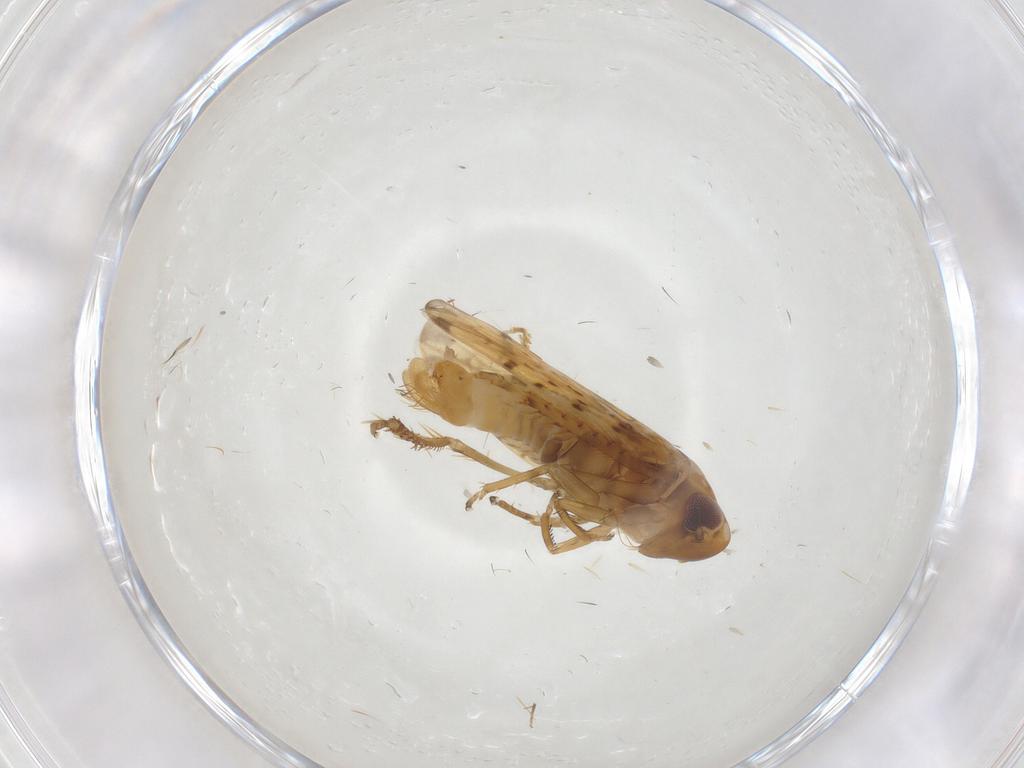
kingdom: Animalia
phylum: Arthropoda
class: Insecta
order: Hemiptera
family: Cicadellidae
